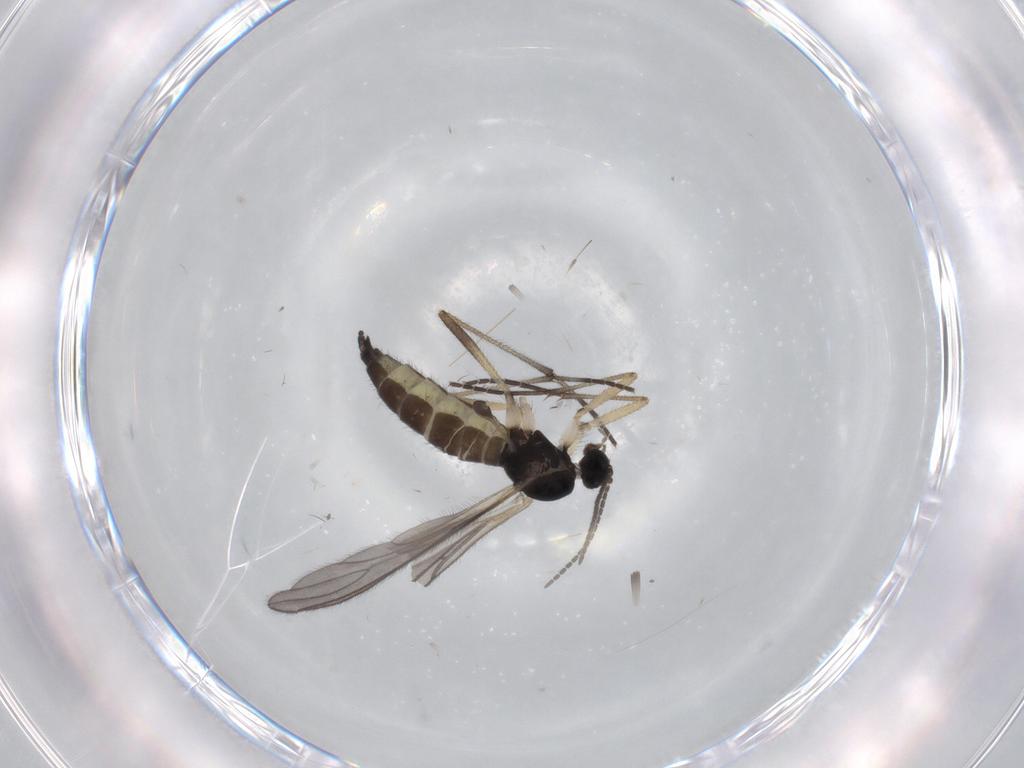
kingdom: Animalia
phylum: Arthropoda
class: Insecta
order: Diptera
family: Sciaridae
